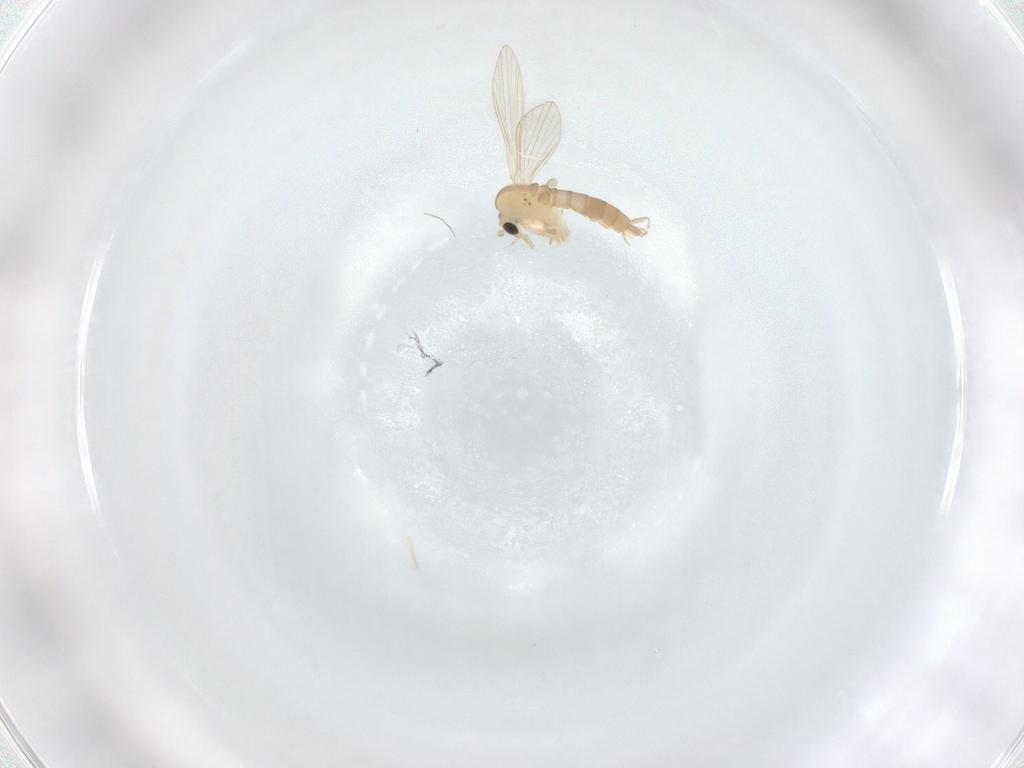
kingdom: Animalia
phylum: Arthropoda
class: Insecta
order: Diptera
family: Psychodidae
